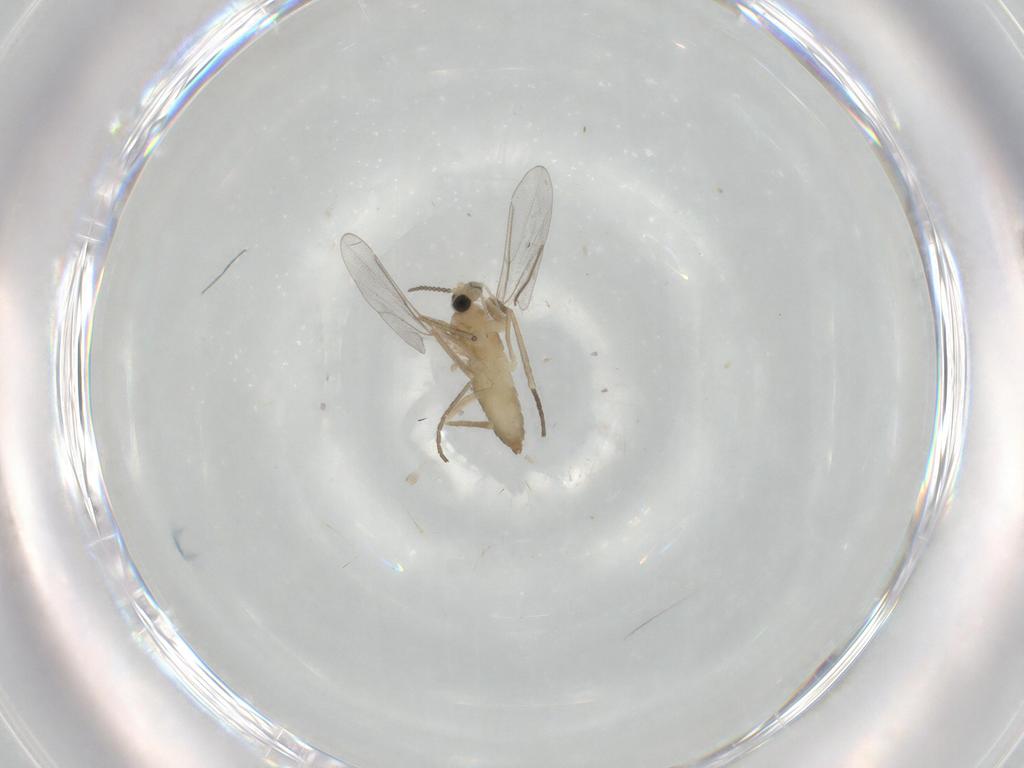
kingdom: Animalia
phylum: Arthropoda
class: Insecta
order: Diptera
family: Cecidomyiidae
